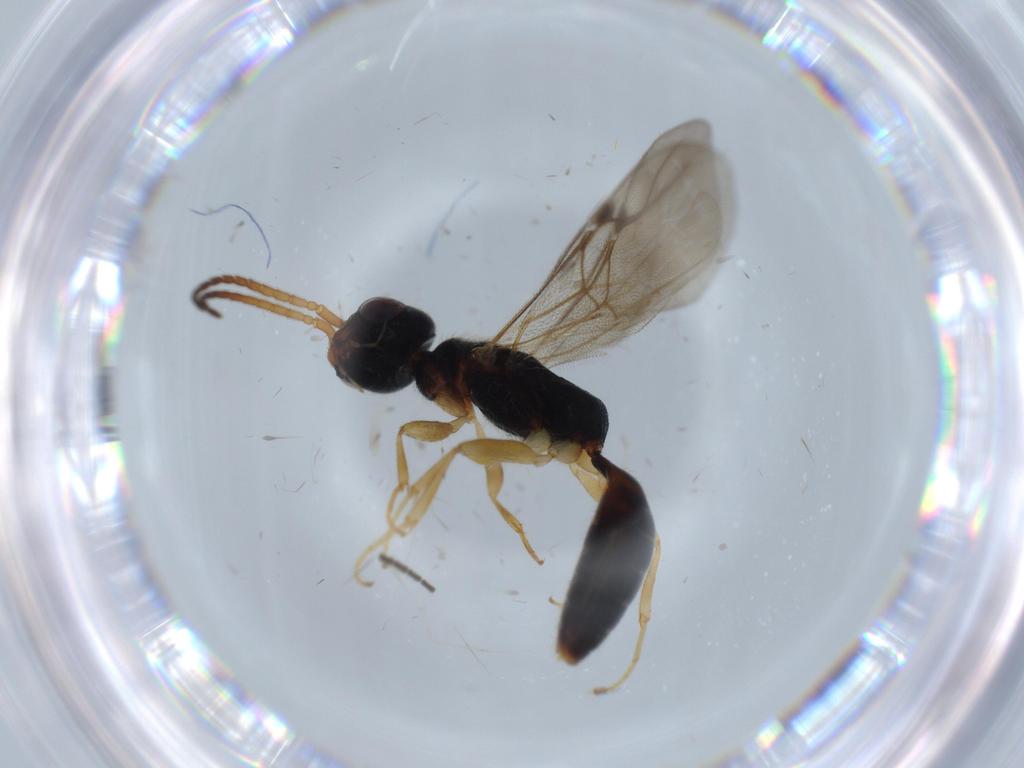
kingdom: Animalia
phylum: Arthropoda
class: Insecta
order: Hymenoptera
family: Bethylidae
